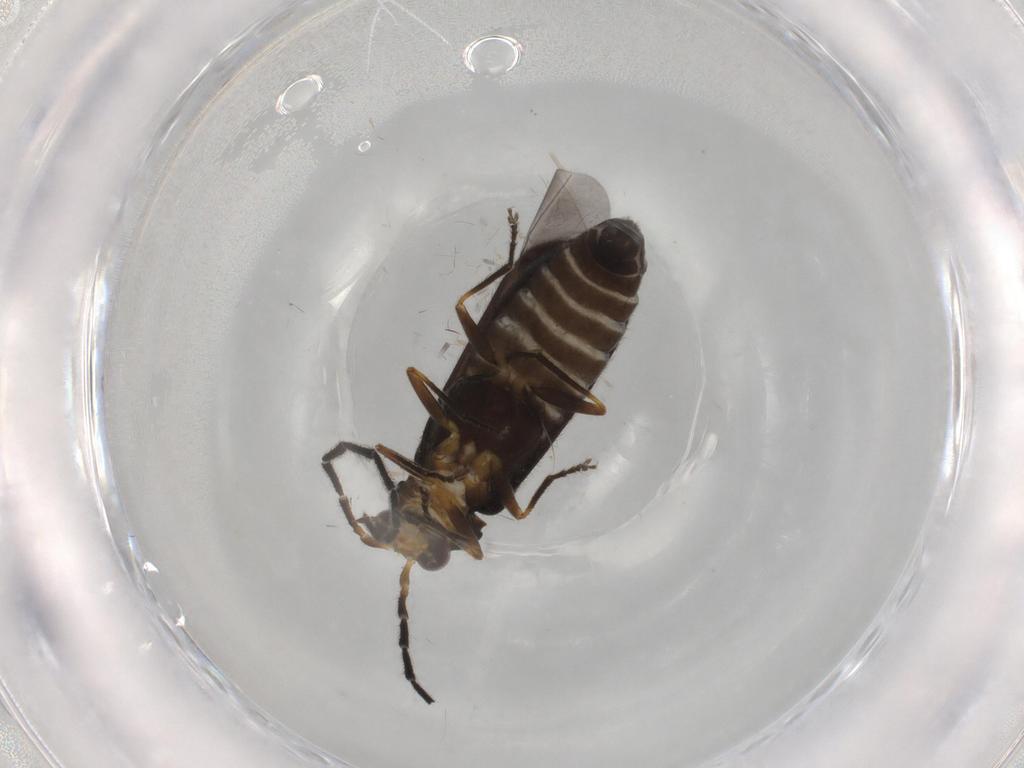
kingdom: Animalia
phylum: Arthropoda
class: Insecta
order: Coleoptera
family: Cantharidae
